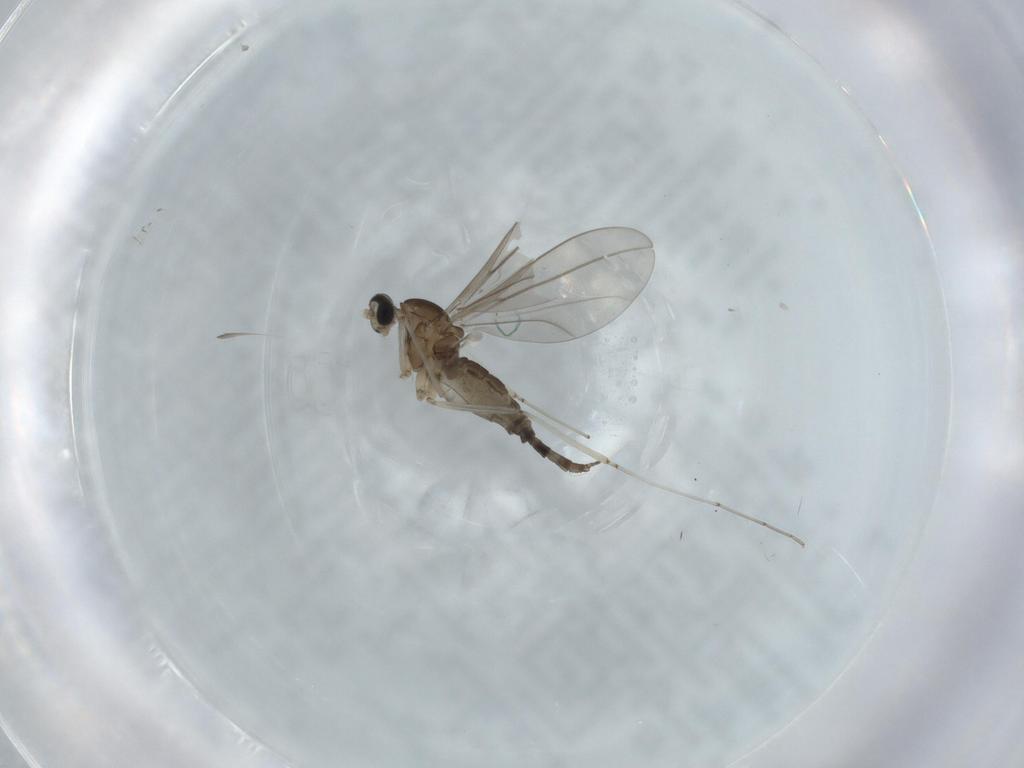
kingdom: Animalia
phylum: Arthropoda
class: Insecta
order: Diptera
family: Cecidomyiidae
